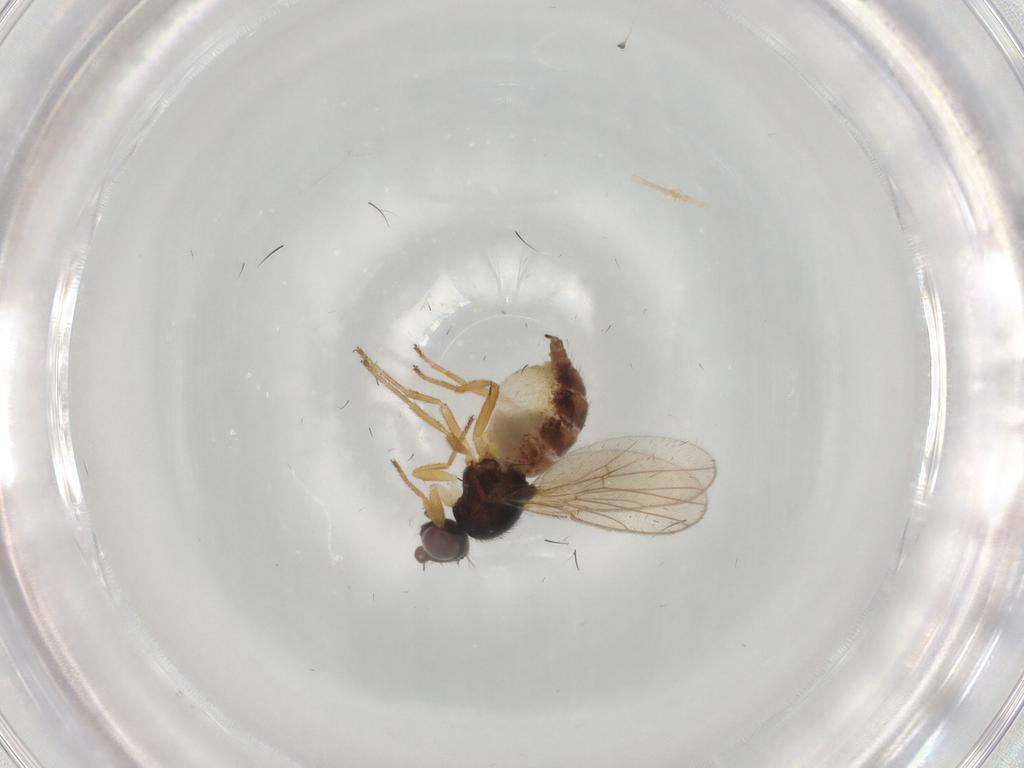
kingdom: Animalia
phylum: Arthropoda
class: Insecta
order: Diptera
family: Chloropidae
